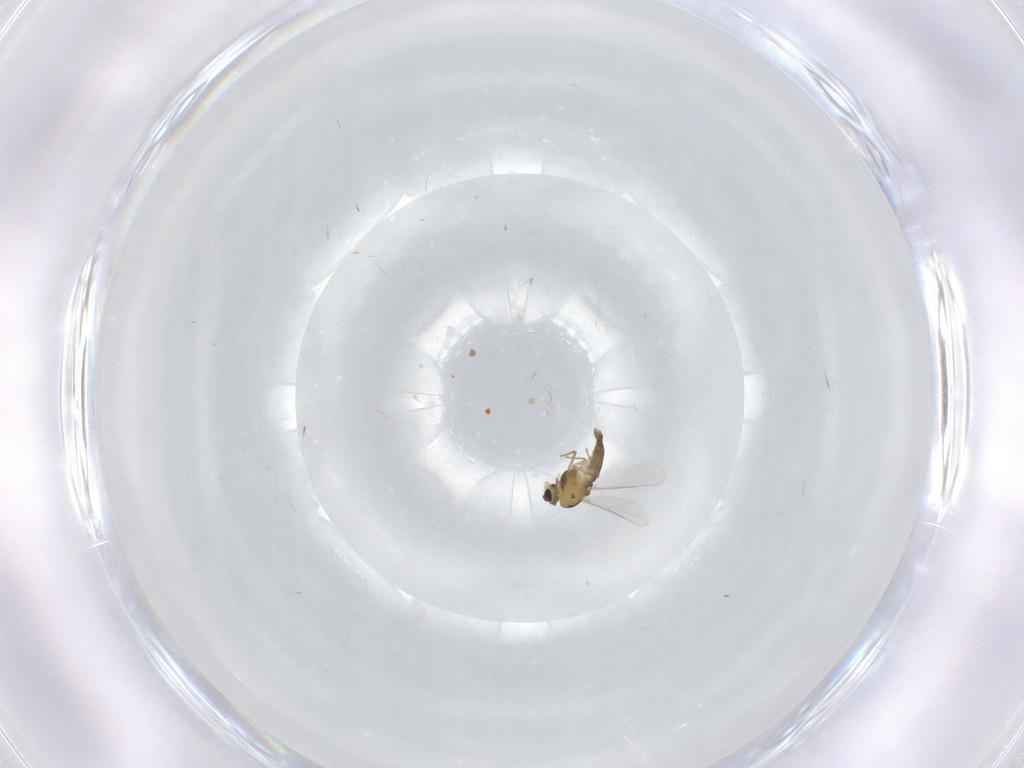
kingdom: Animalia
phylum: Arthropoda
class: Insecta
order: Diptera
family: Chironomidae
